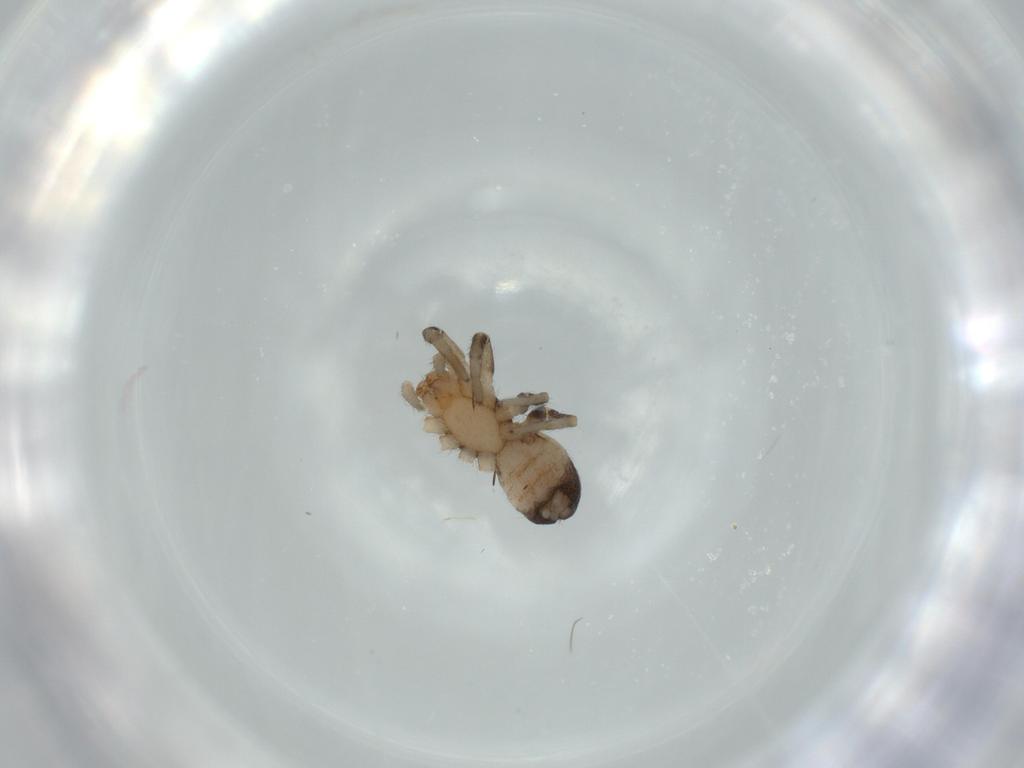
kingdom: Animalia
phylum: Arthropoda
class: Arachnida
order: Araneae
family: Gnaphosidae
